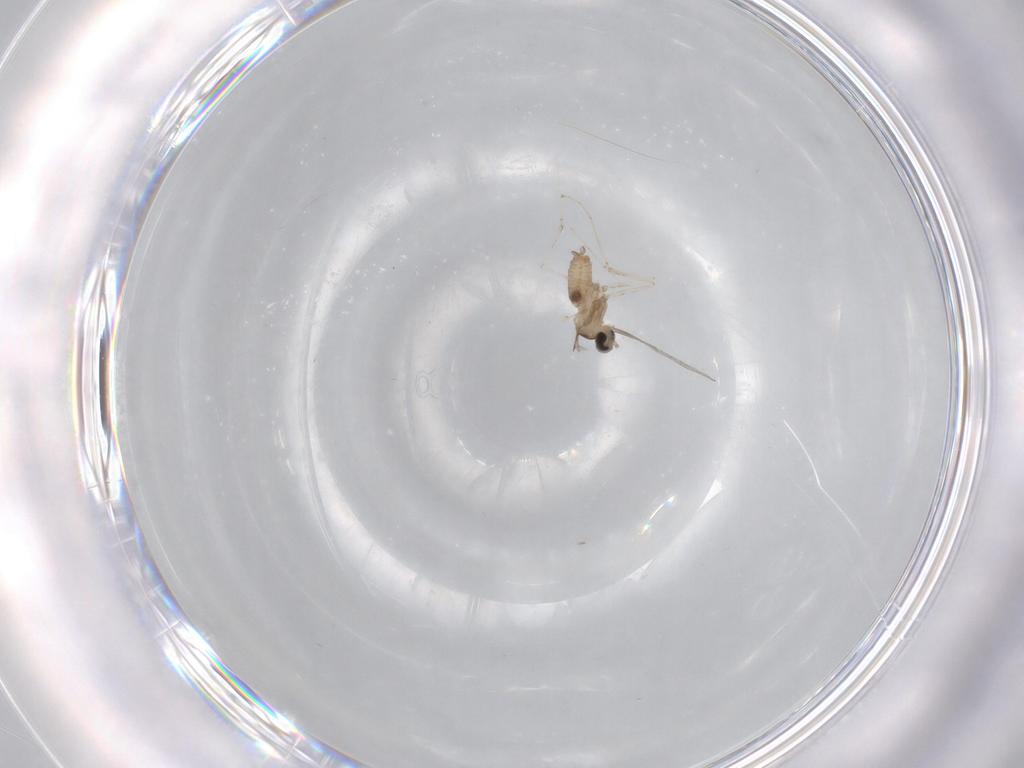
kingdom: Animalia
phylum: Arthropoda
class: Insecta
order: Diptera
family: Cecidomyiidae
